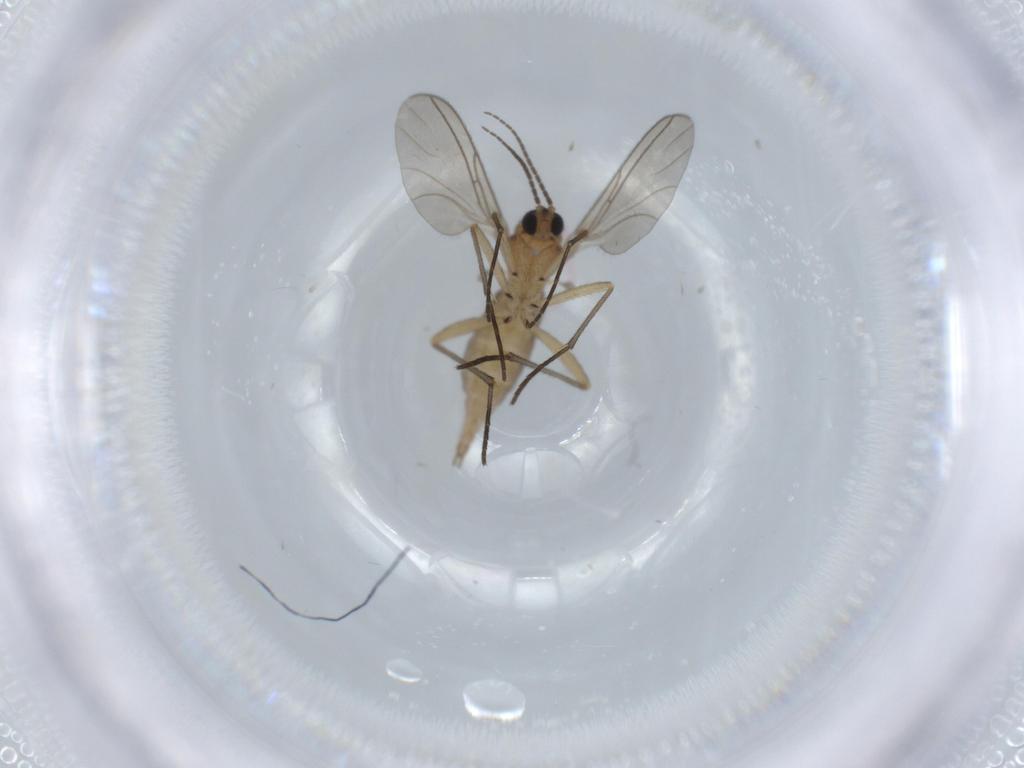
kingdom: Animalia
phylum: Arthropoda
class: Insecta
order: Diptera
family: Sciaridae
